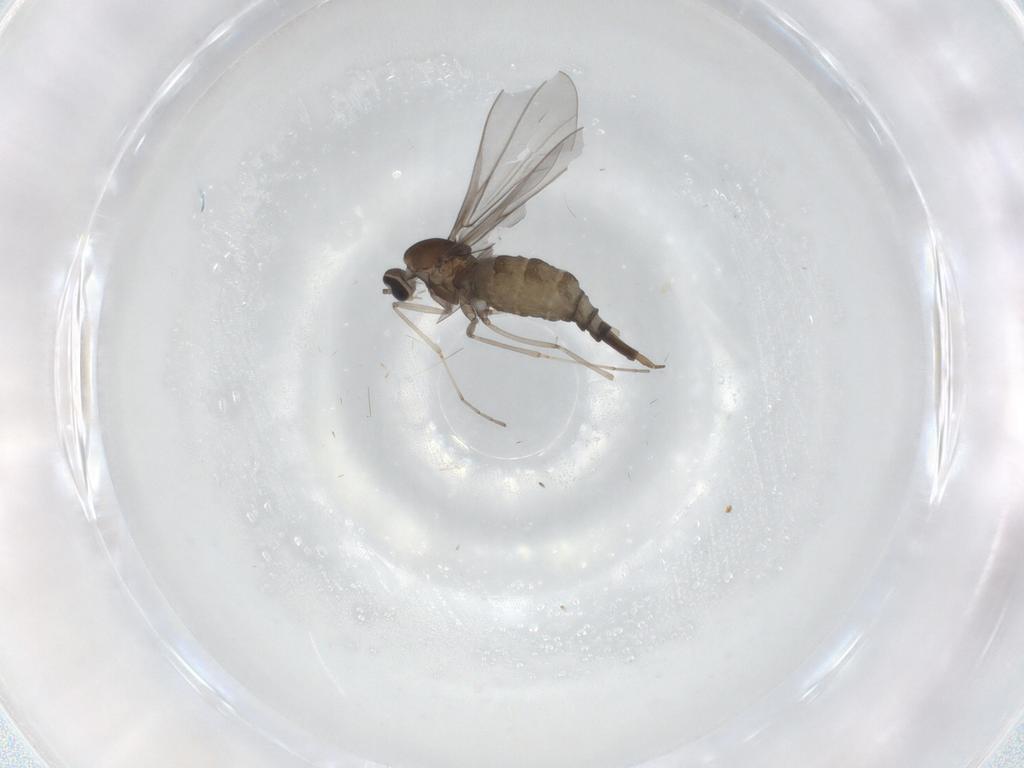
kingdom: Animalia
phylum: Arthropoda
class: Insecta
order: Diptera
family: Cecidomyiidae
